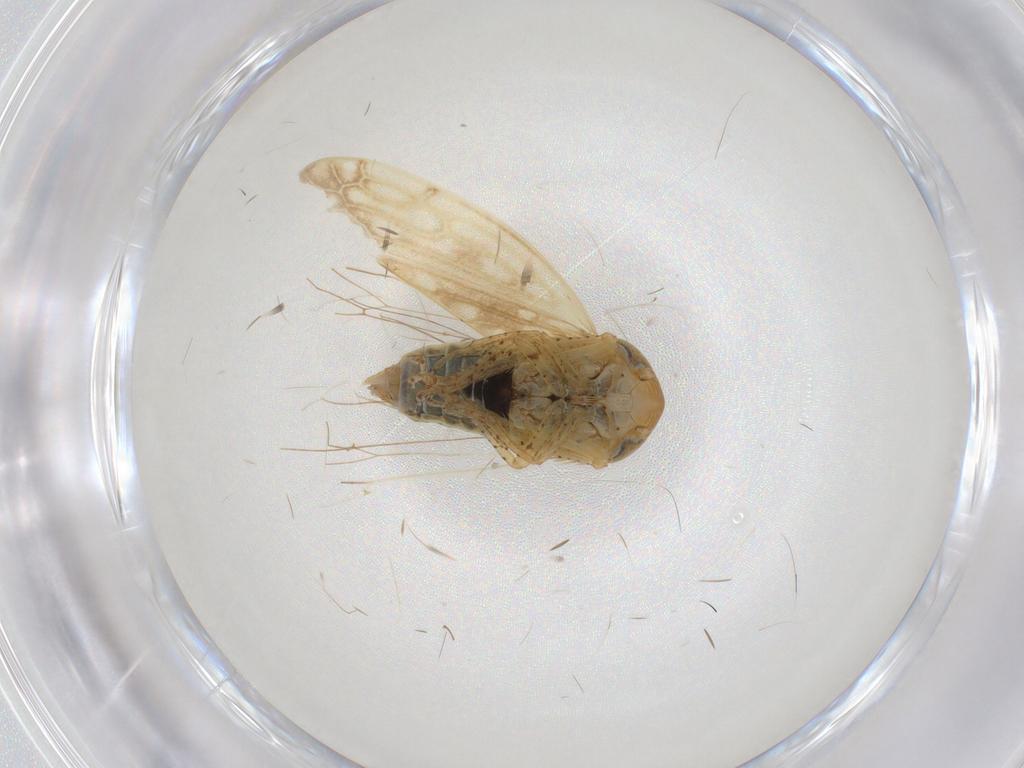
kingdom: Animalia
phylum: Arthropoda
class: Insecta
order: Hemiptera
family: Cicadellidae
